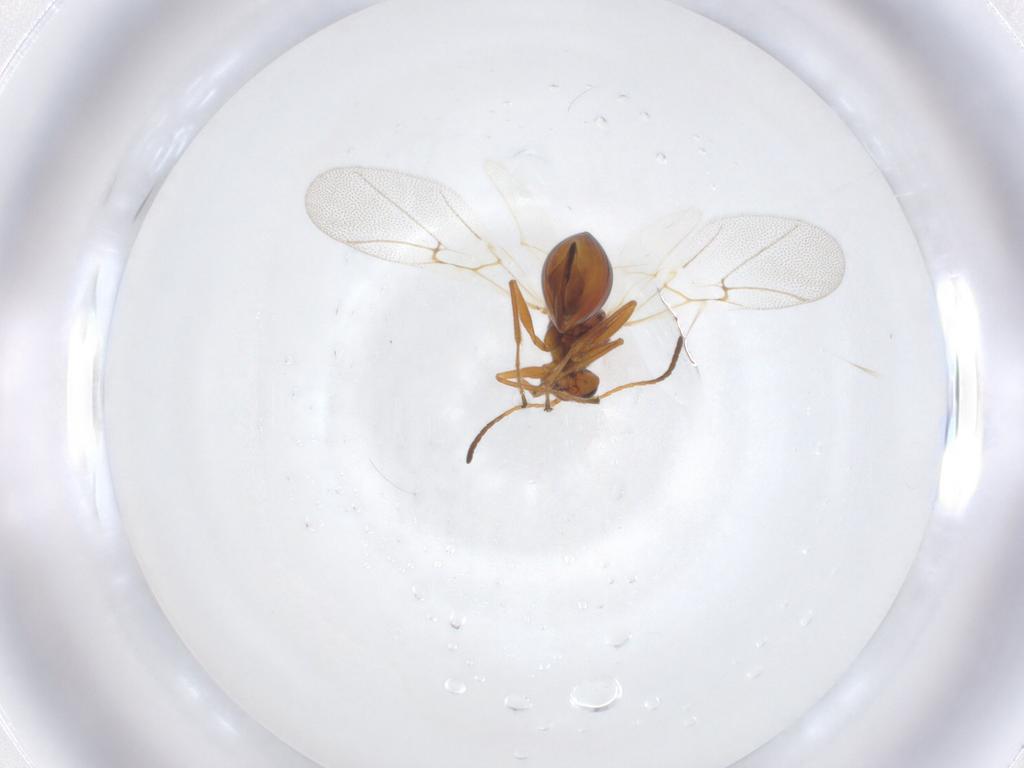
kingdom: Animalia
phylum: Arthropoda
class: Insecta
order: Hymenoptera
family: Cynipidae
